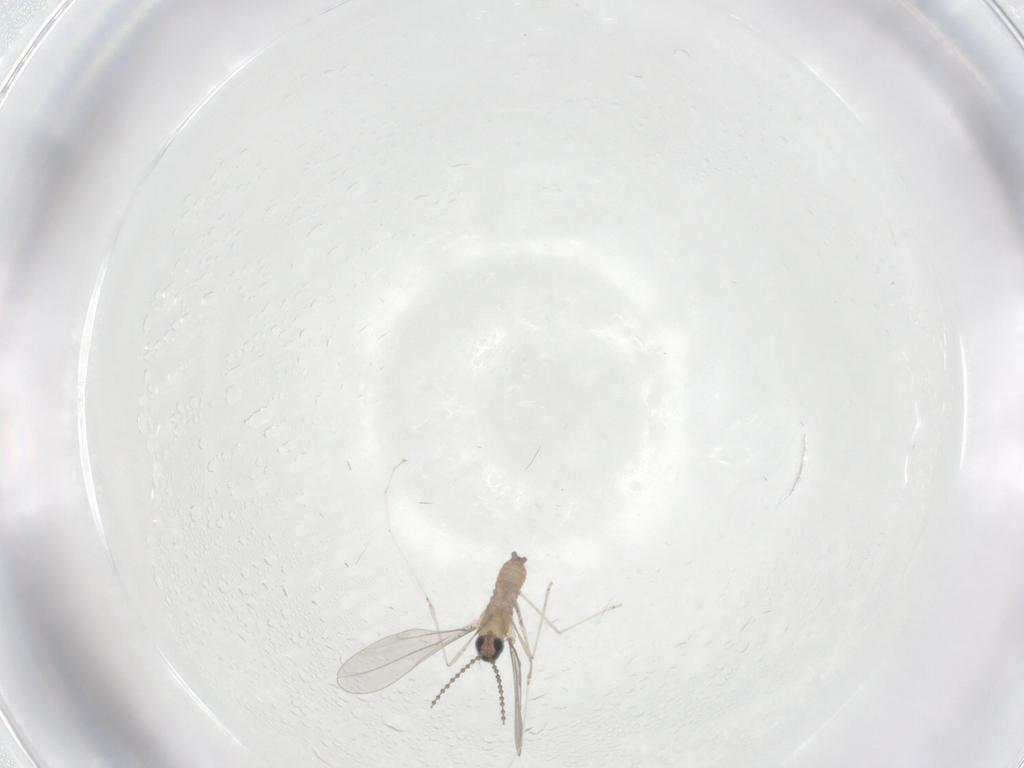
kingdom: Animalia
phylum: Arthropoda
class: Insecta
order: Diptera
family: Cecidomyiidae
